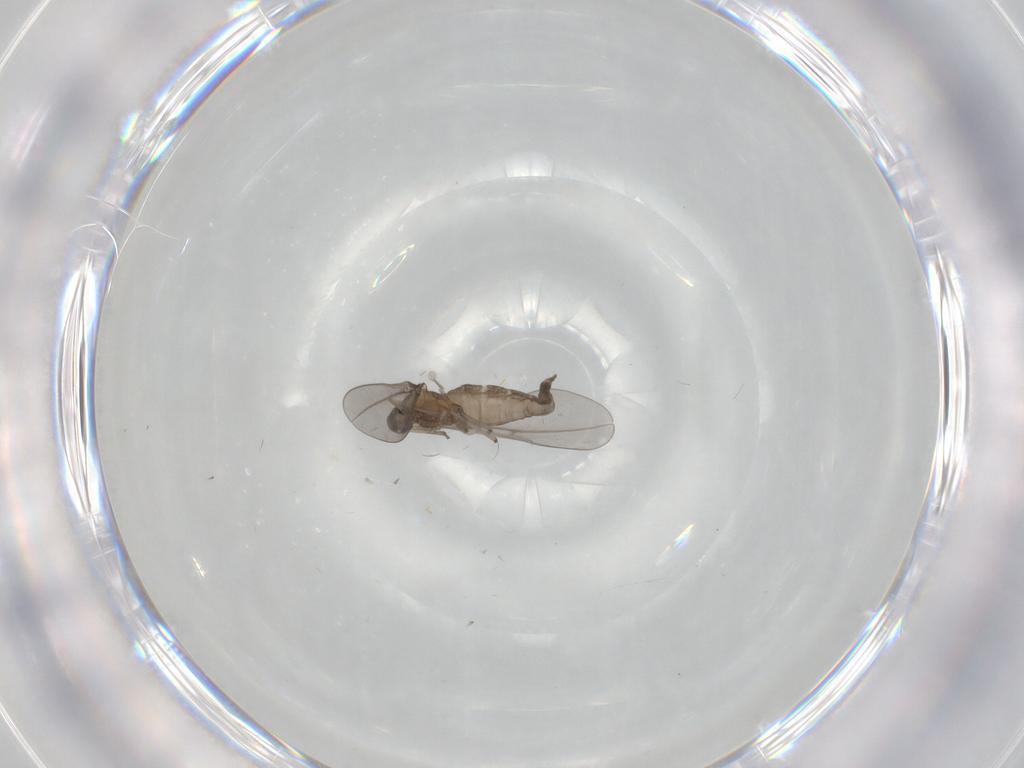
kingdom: Animalia
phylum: Arthropoda
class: Insecta
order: Diptera
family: Cecidomyiidae
